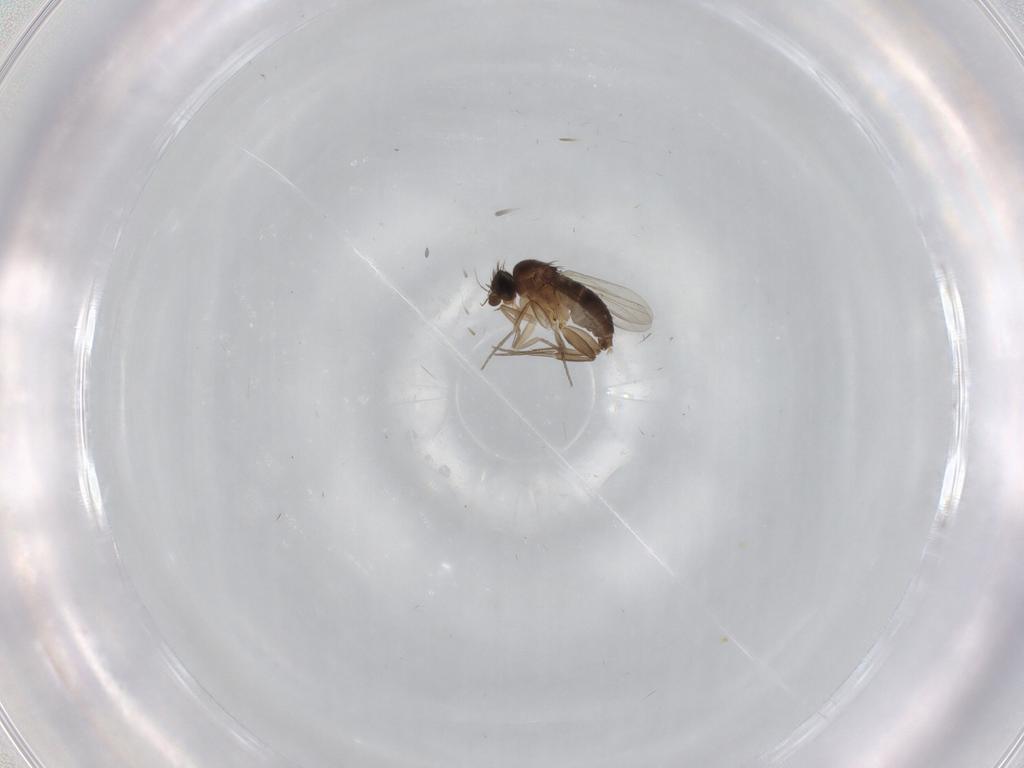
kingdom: Animalia
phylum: Arthropoda
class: Insecta
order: Diptera
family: Phoridae
